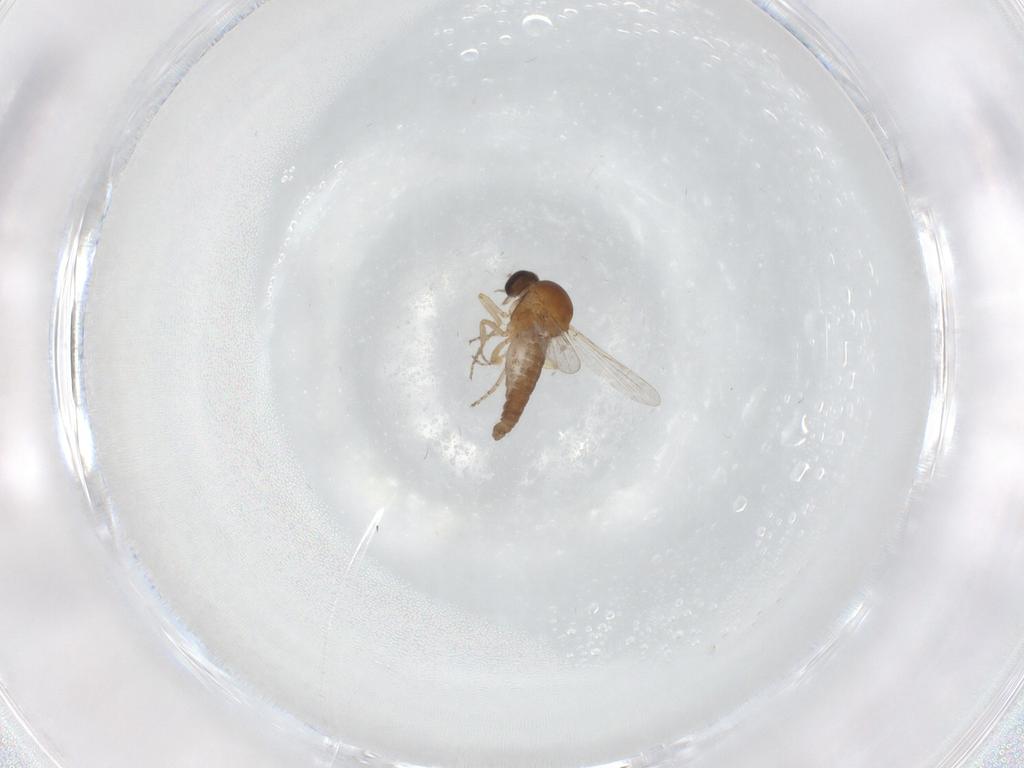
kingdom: Animalia
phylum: Arthropoda
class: Insecta
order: Diptera
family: Ceratopogonidae
